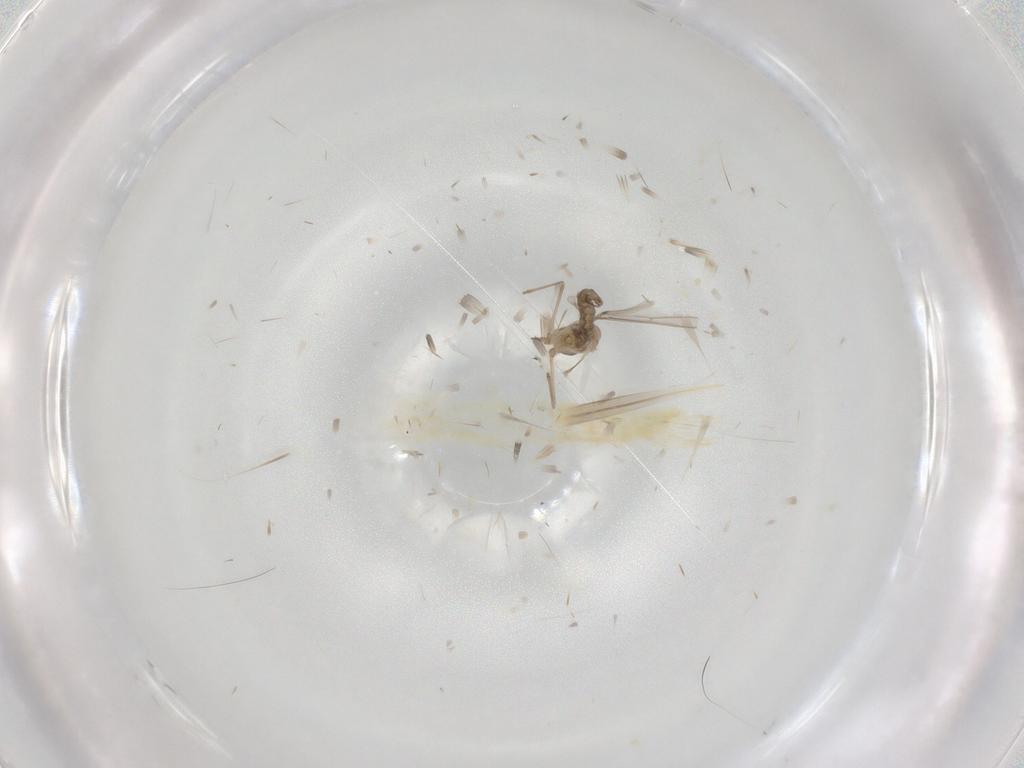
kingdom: Animalia
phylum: Arthropoda
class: Insecta
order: Diptera
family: Cecidomyiidae
